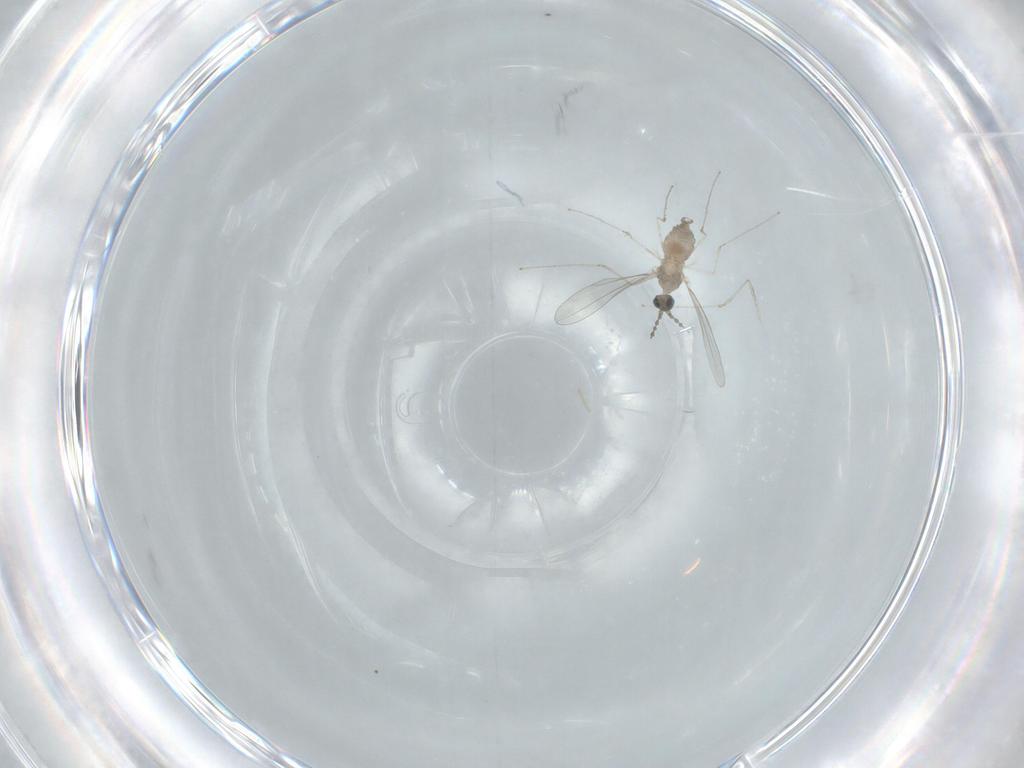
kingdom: Animalia
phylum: Arthropoda
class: Insecta
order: Diptera
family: Cecidomyiidae
